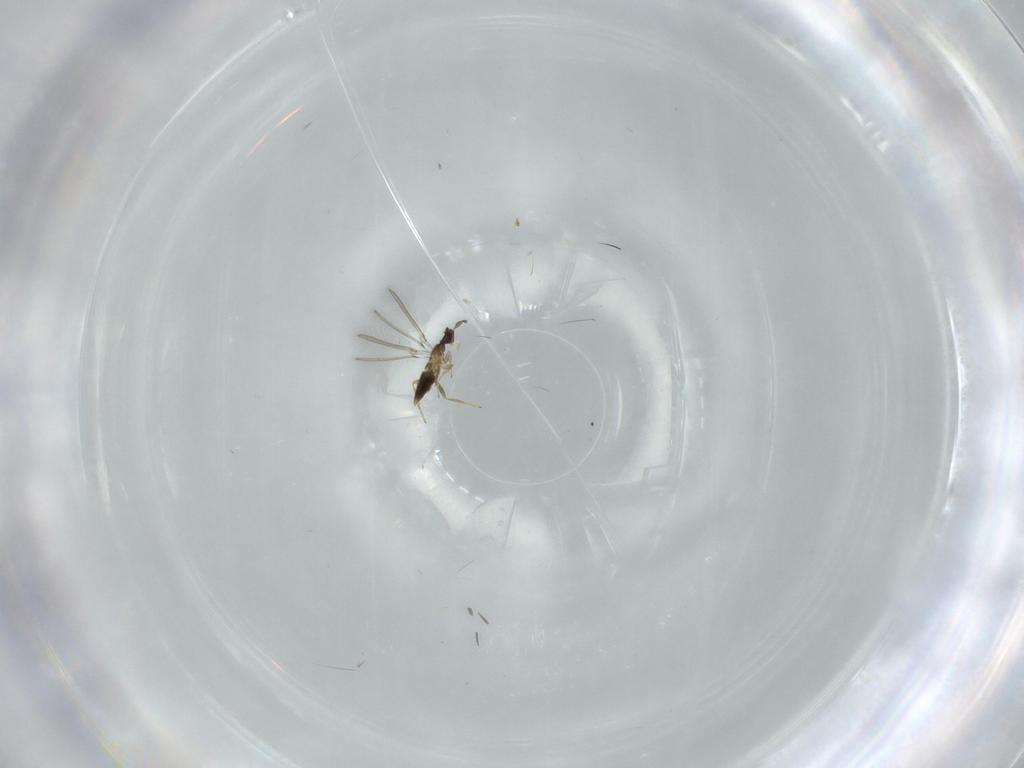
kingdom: Animalia
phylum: Arthropoda
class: Insecta
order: Hymenoptera
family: Mymaridae
